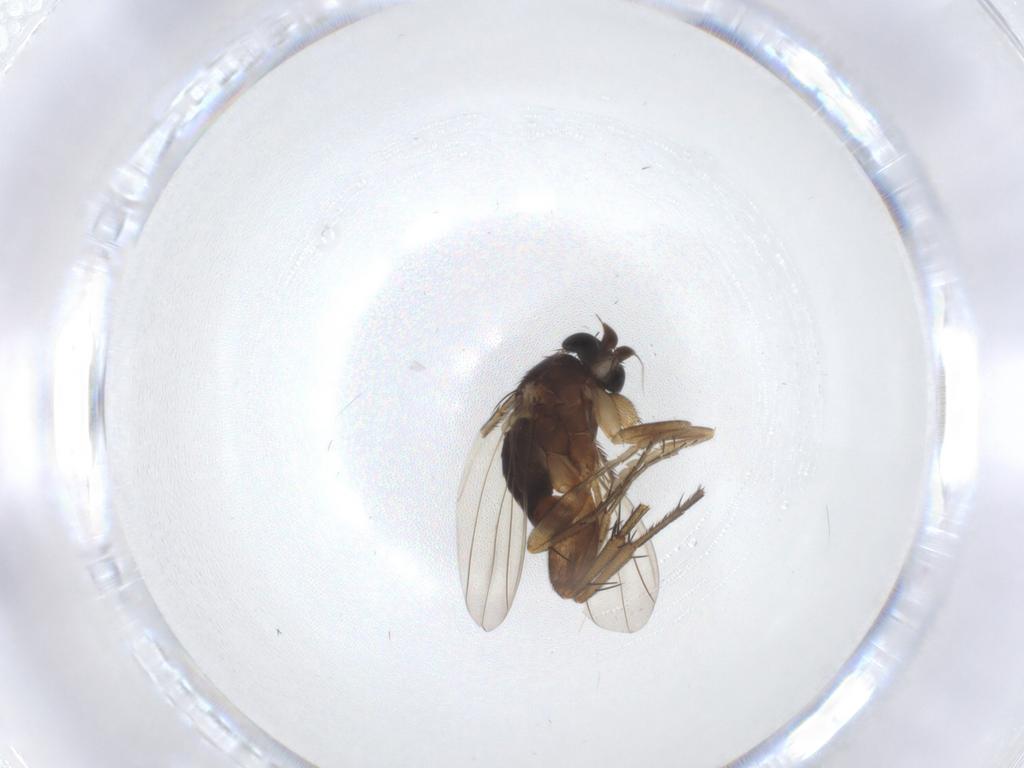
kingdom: Animalia
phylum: Arthropoda
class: Insecta
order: Diptera
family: Phoridae
